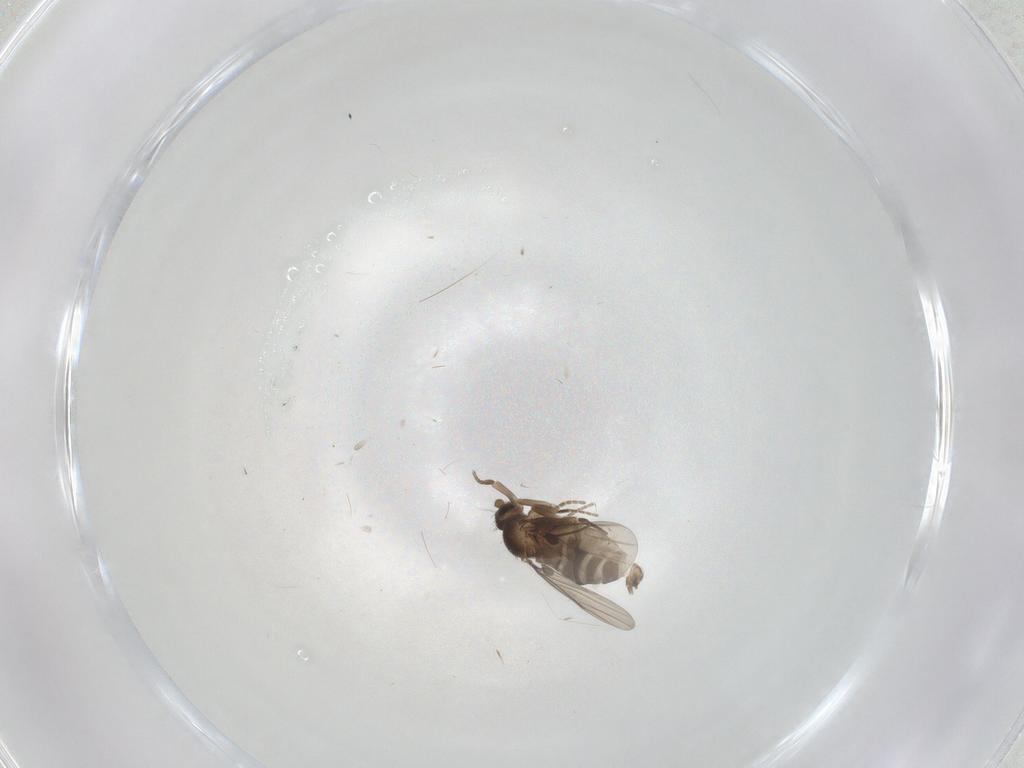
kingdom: Animalia
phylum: Arthropoda
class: Insecta
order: Diptera
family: Phoridae
